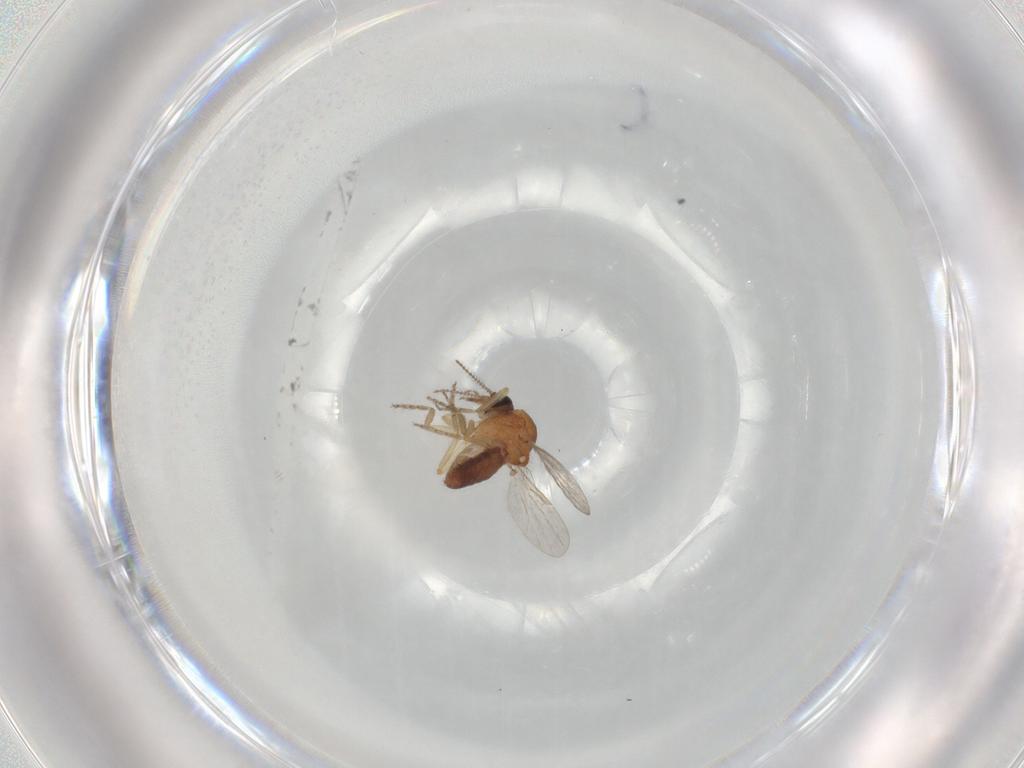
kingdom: Animalia
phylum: Arthropoda
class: Insecta
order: Diptera
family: Ceratopogonidae
